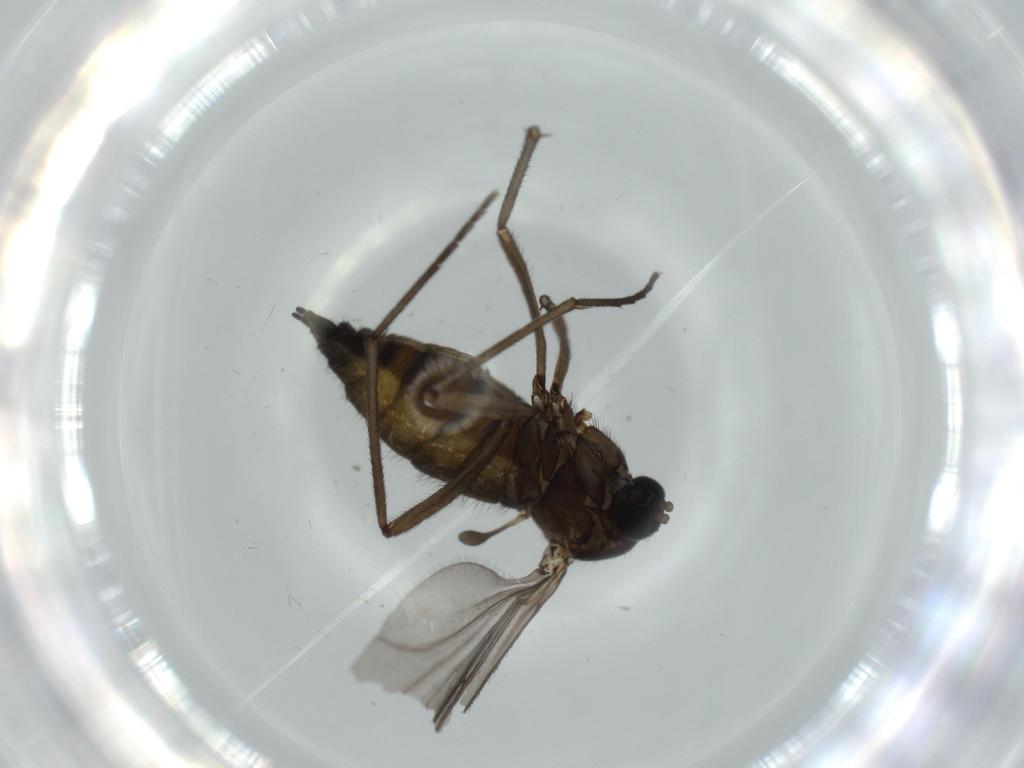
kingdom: Animalia
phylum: Arthropoda
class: Insecta
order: Diptera
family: Sciaridae
